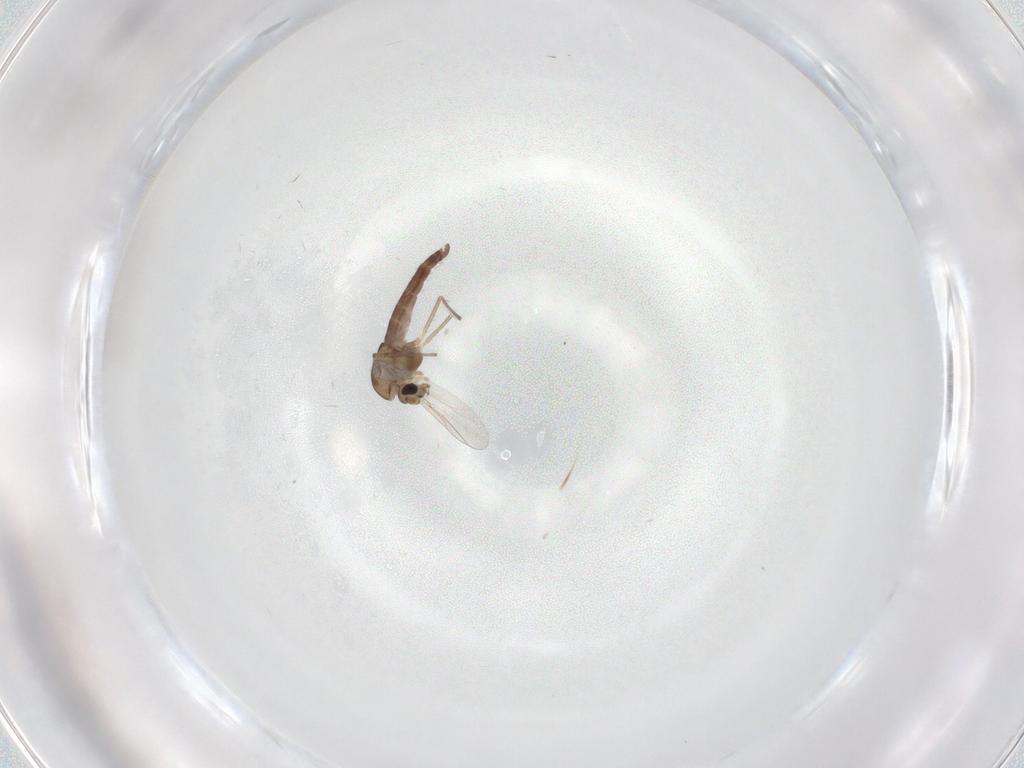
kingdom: Animalia
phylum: Arthropoda
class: Insecta
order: Diptera
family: Chironomidae
